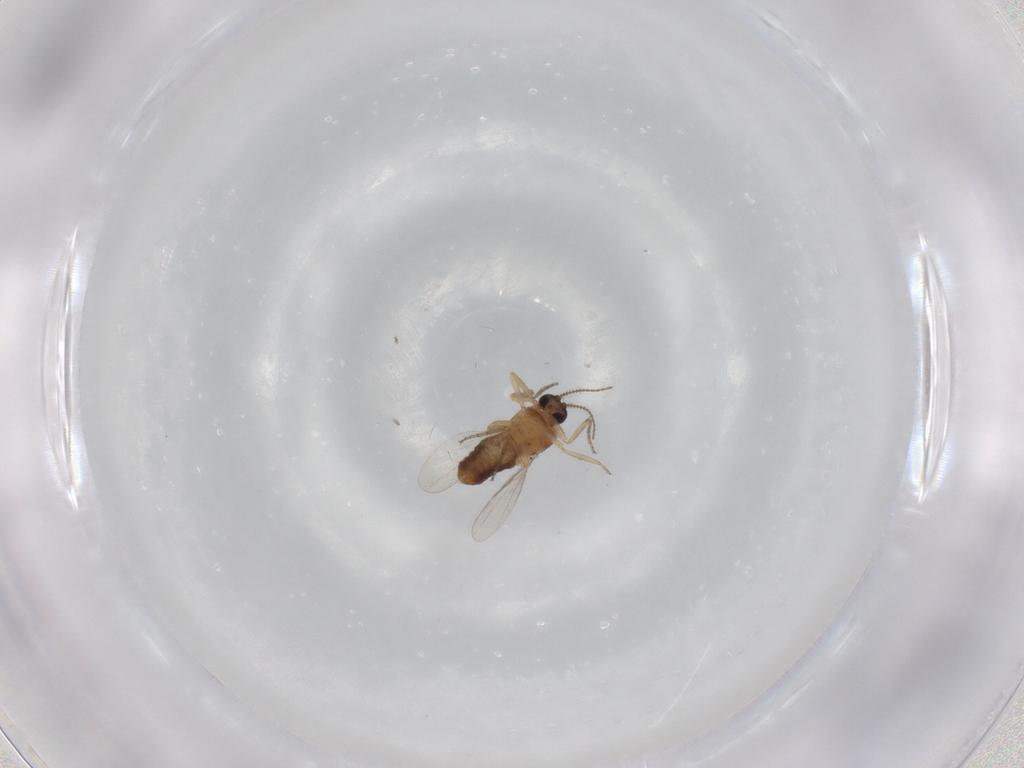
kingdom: Animalia
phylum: Arthropoda
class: Insecta
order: Diptera
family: Ceratopogonidae
